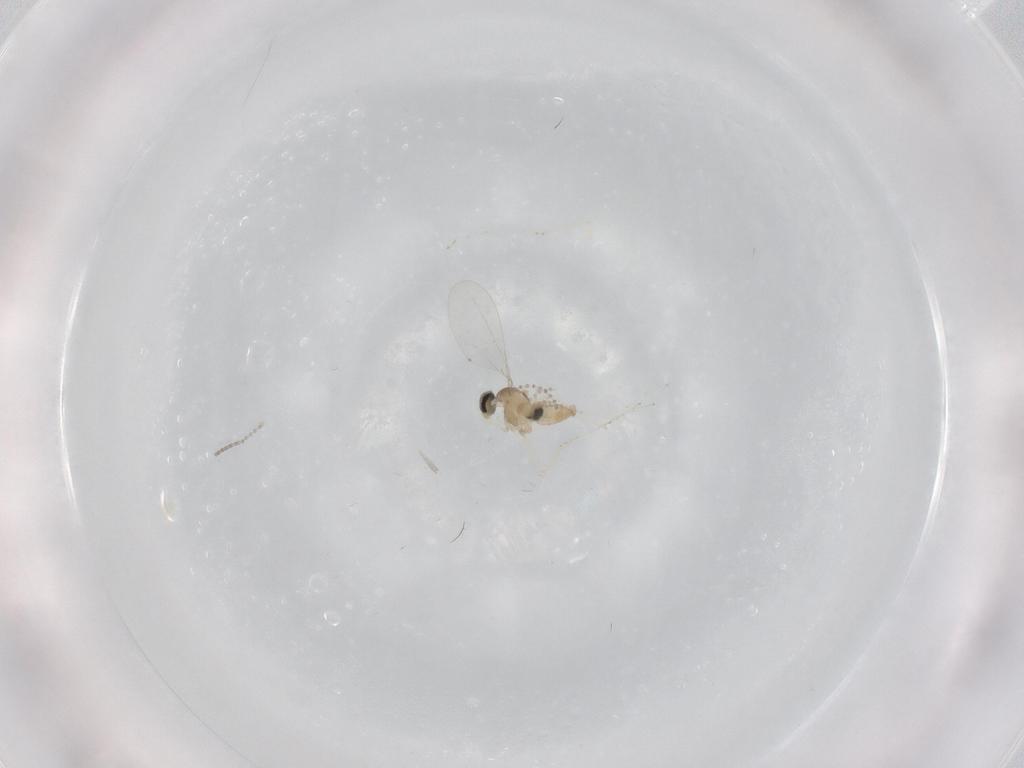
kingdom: Animalia
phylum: Arthropoda
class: Insecta
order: Diptera
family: Cecidomyiidae
